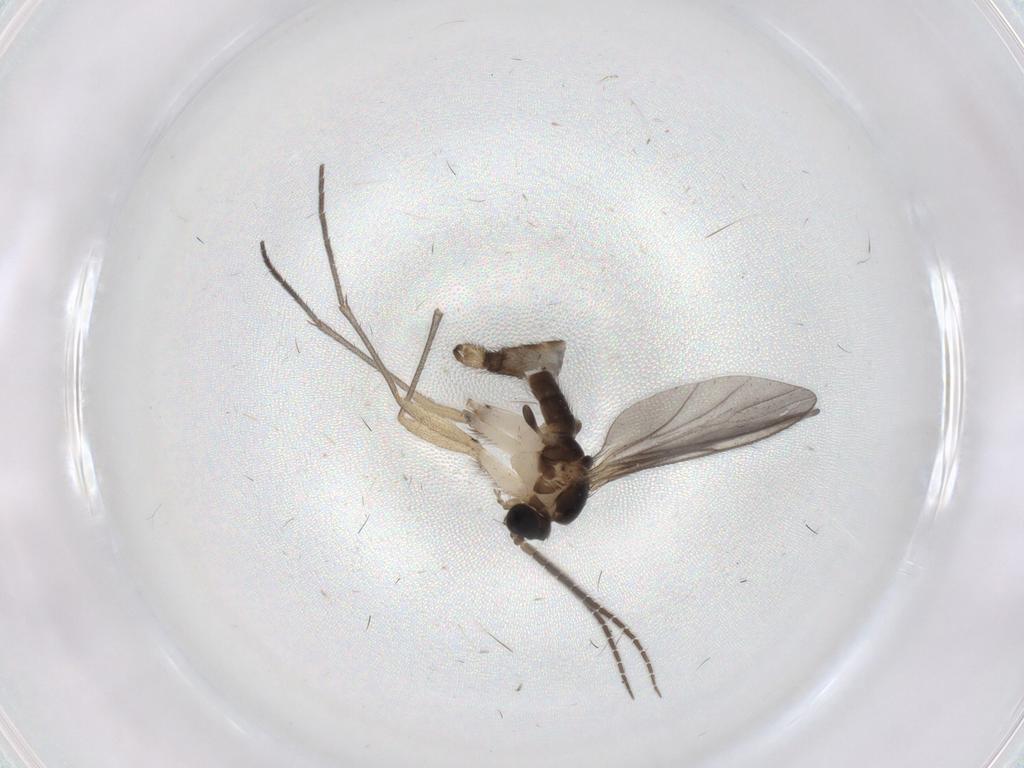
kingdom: Animalia
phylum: Arthropoda
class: Insecta
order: Diptera
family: Sciaridae
